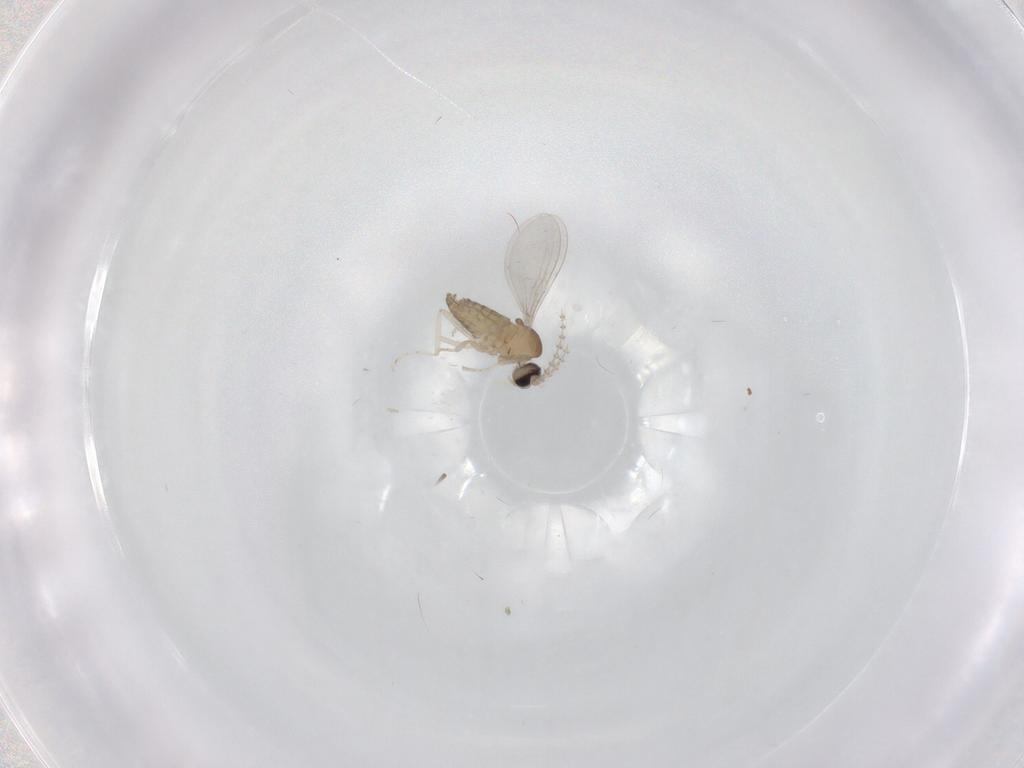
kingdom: Animalia
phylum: Arthropoda
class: Insecta
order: Diptera
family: Cecidomyiidae
